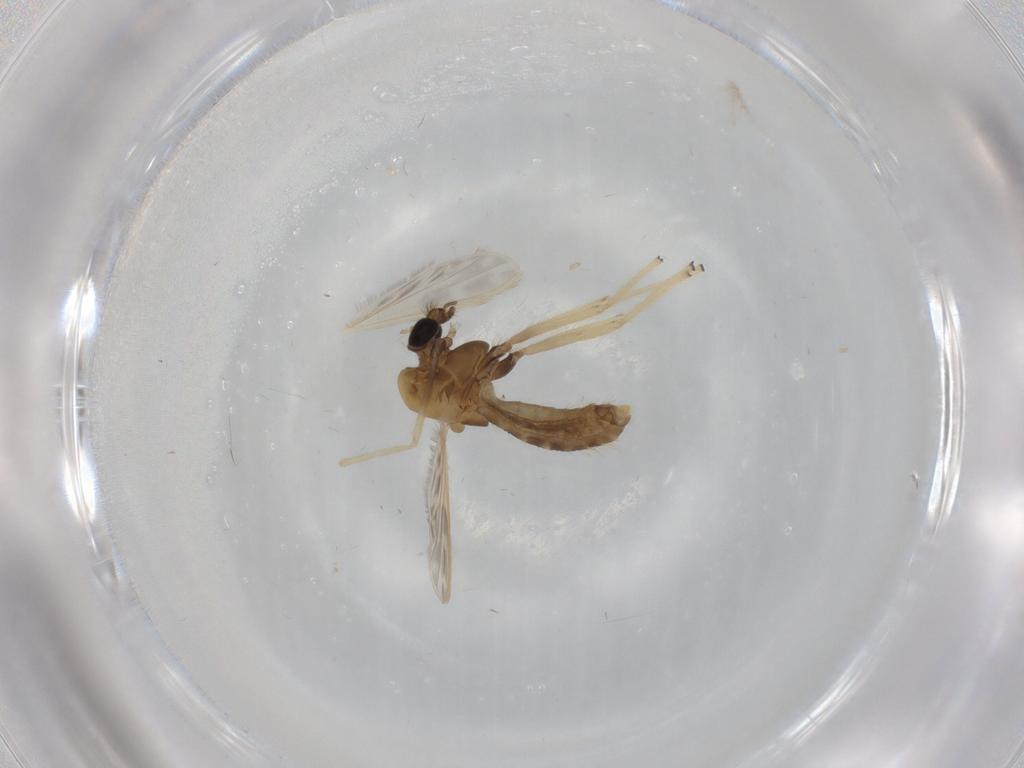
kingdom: Animalia
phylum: Arthropoda
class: Insecta
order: Diptera
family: Chironomidae
